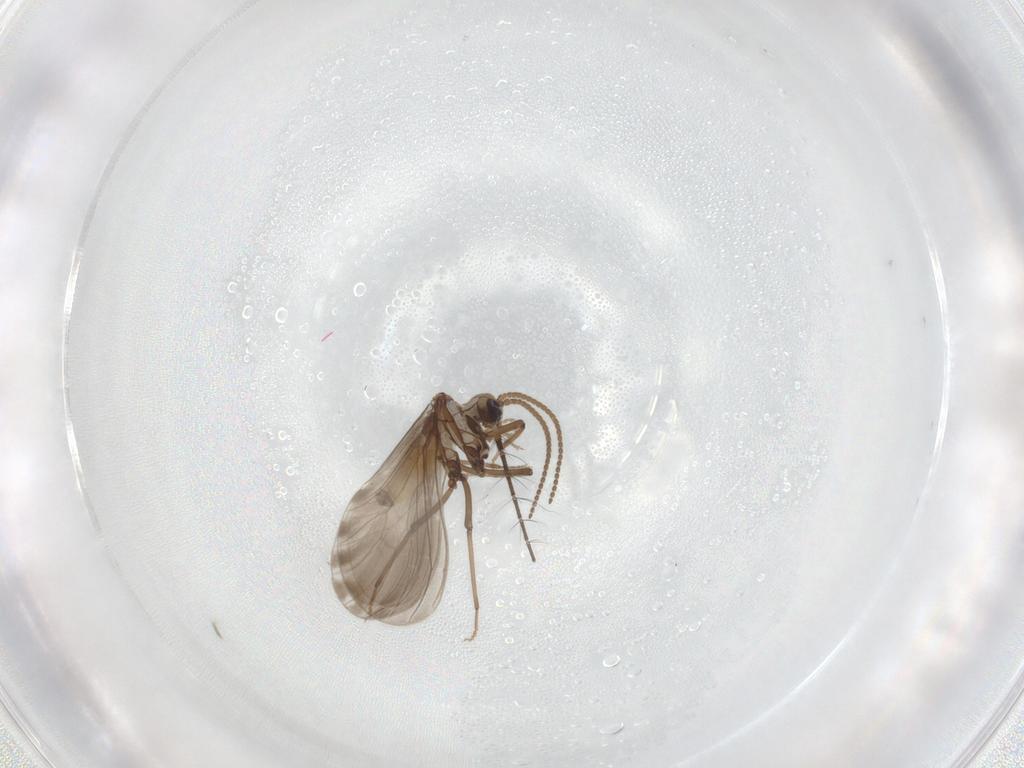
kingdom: Animalia
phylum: Arthropoda
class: Insecta
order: Neuroptera
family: Coniopterygidae
